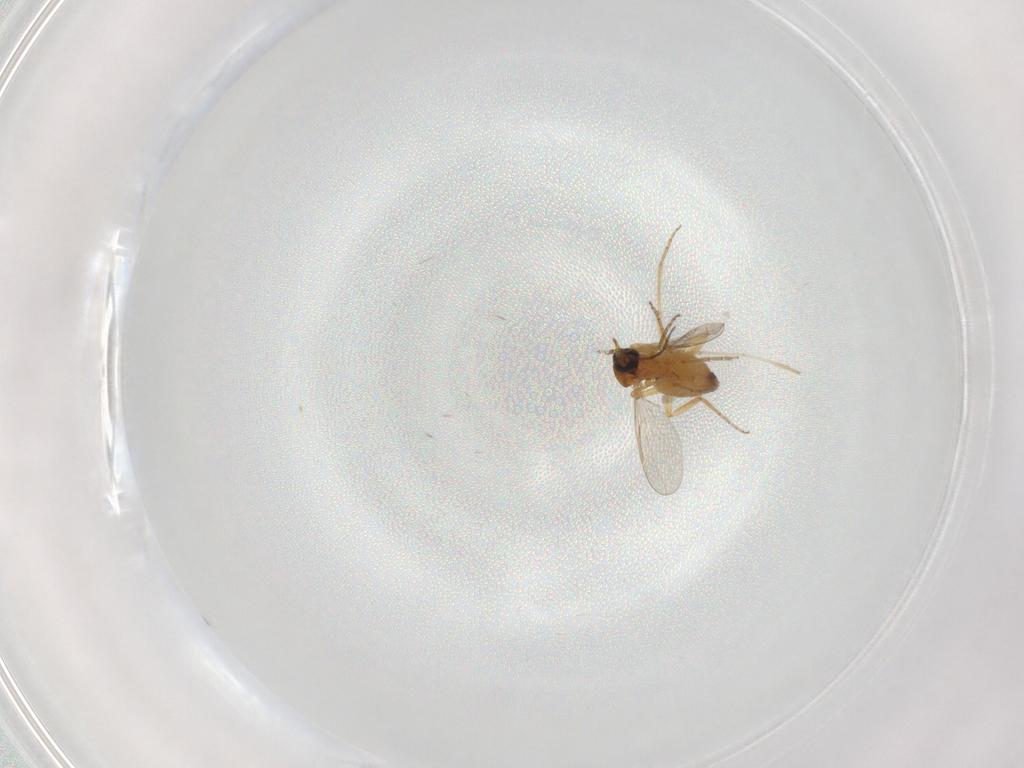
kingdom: Animalia
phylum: Arthropoda
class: Insecta
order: Diptera
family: Ceratopogonidae
